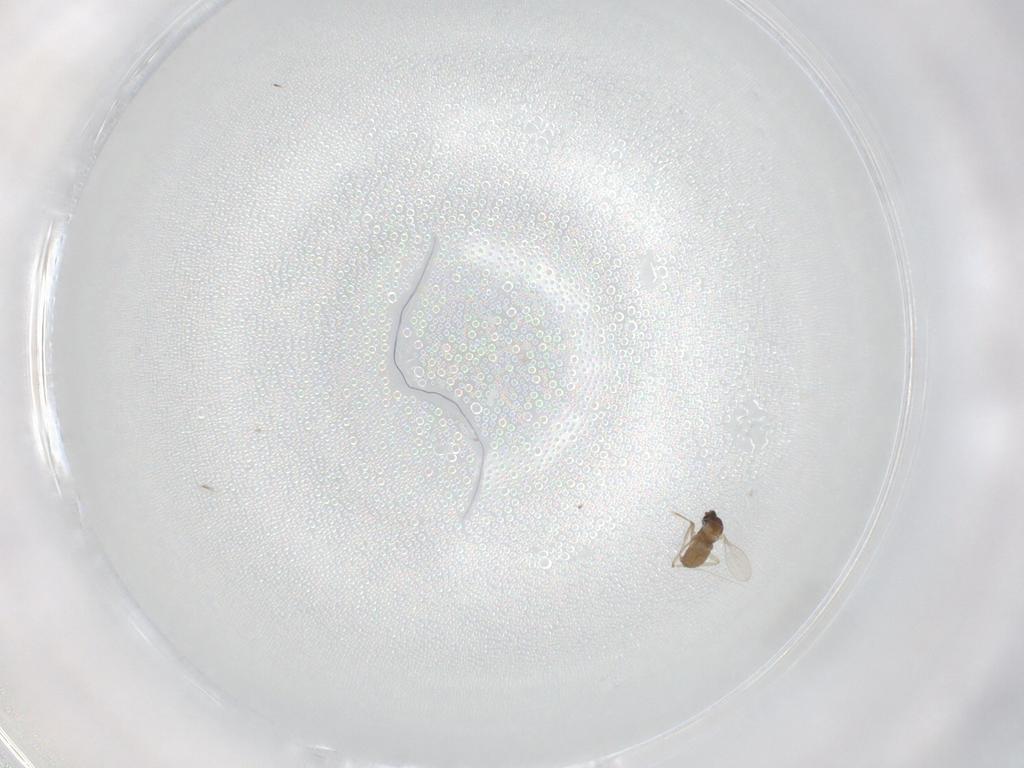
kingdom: Animalia
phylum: Arthropoda
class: Insecta
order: Diptera
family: Cecidomyiidae
